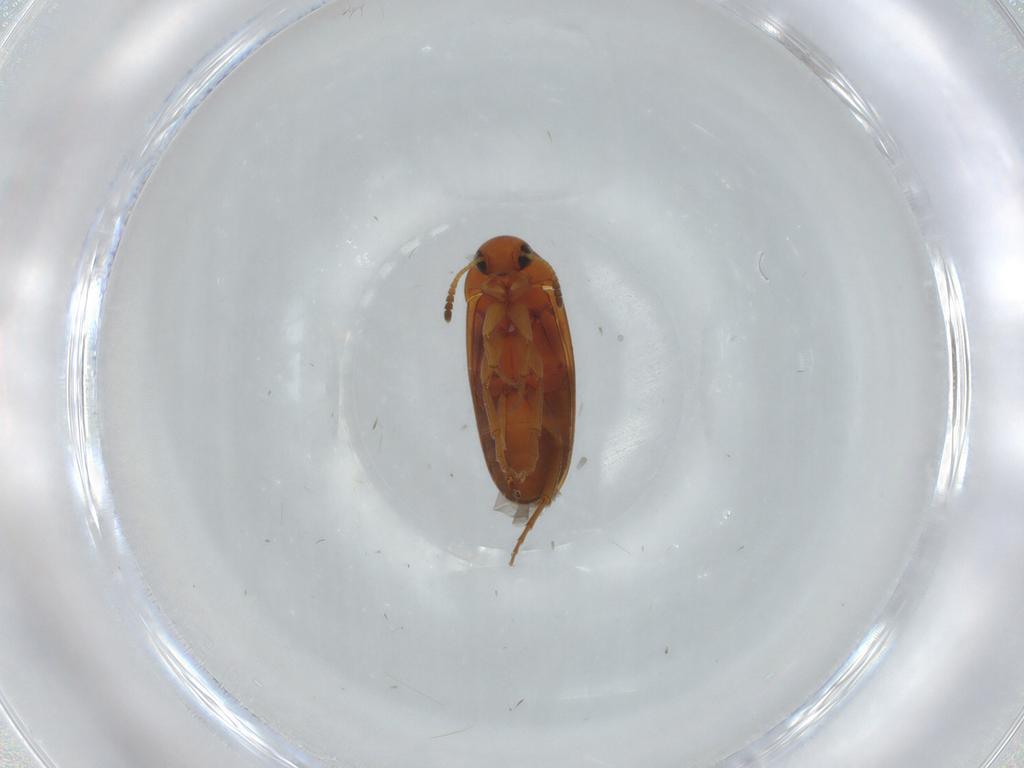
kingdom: Animalia
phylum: Arthropoda
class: Insecta
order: Coleoptera
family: Scraptiidae
